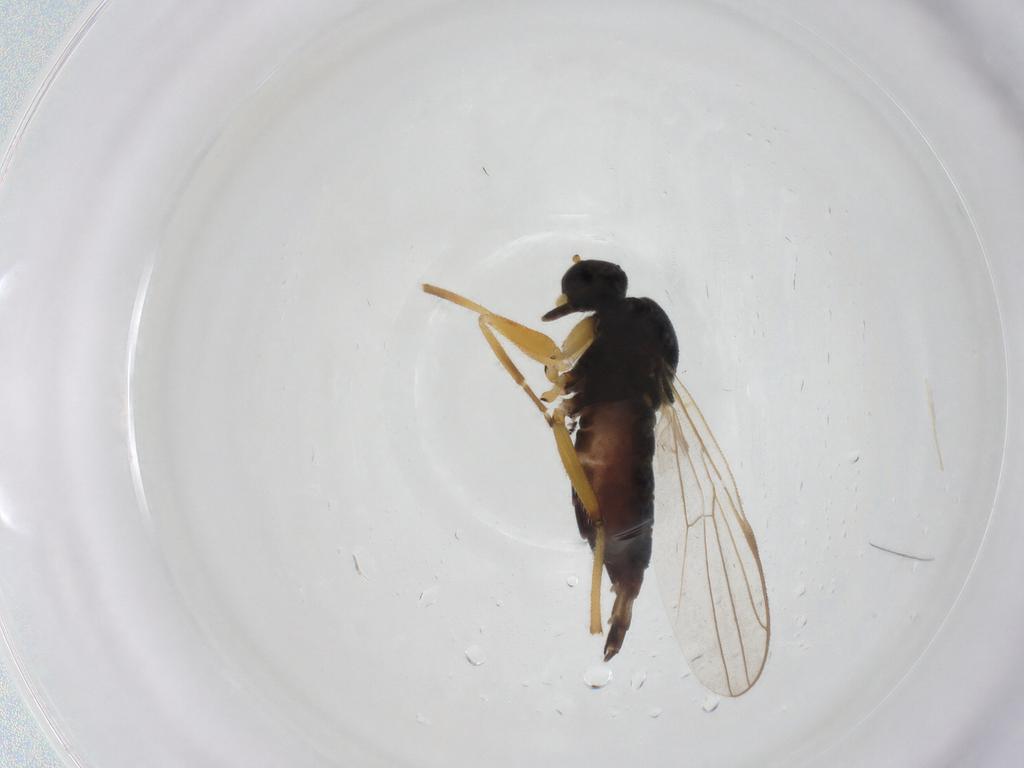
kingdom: Animalia
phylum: Arthropoda
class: Insecta
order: Diptera
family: Hybotidae
